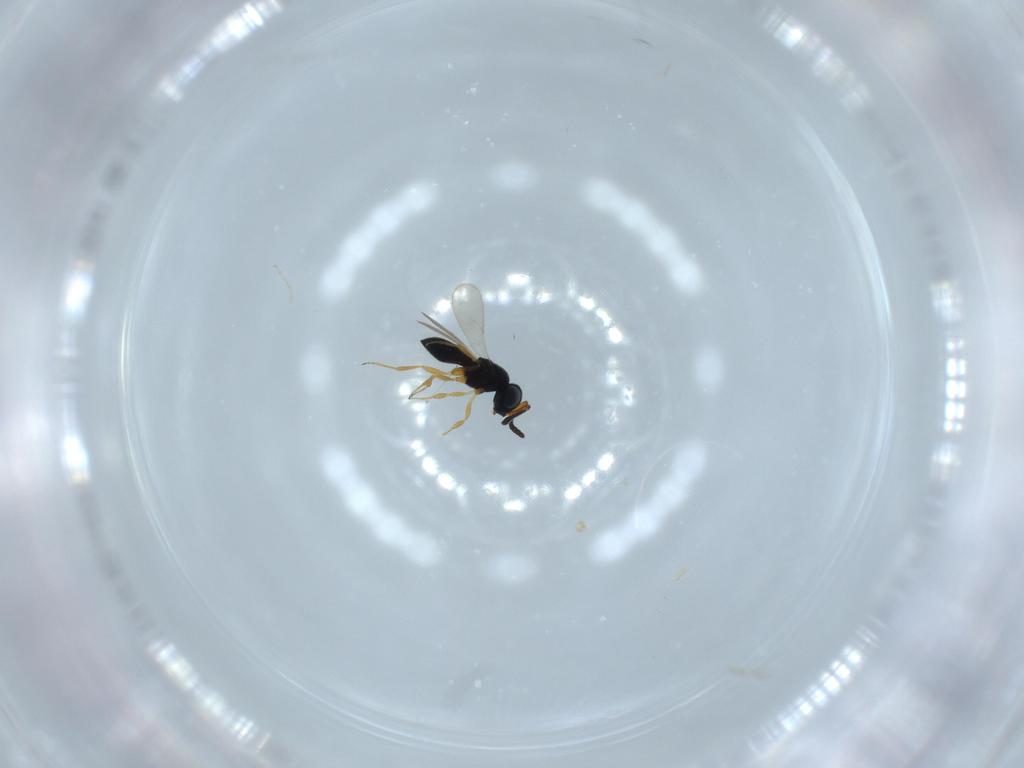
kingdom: Animalia
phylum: Arthropoda
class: Insecta
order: Hymenoptera
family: Scelionidae
